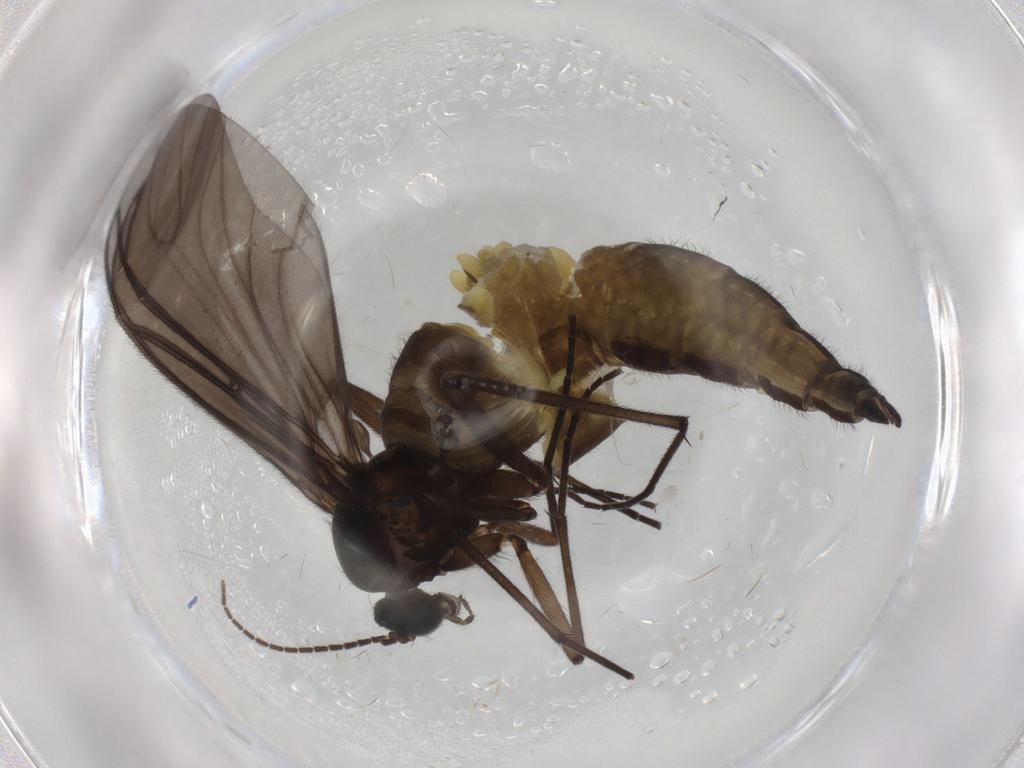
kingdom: Animalia
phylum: Arthropoda
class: Insecta
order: Diptera
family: Sciaridae
